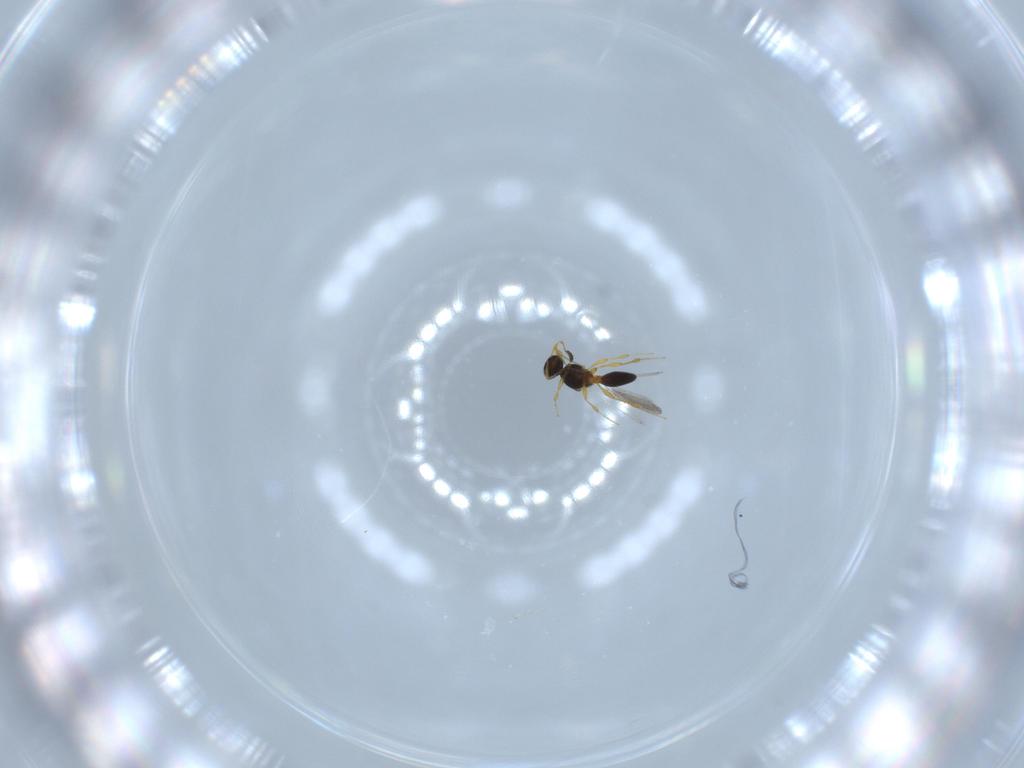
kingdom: Animalia
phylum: Arthropoda
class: Insecta
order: Hymenoptera
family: Platygastridae
